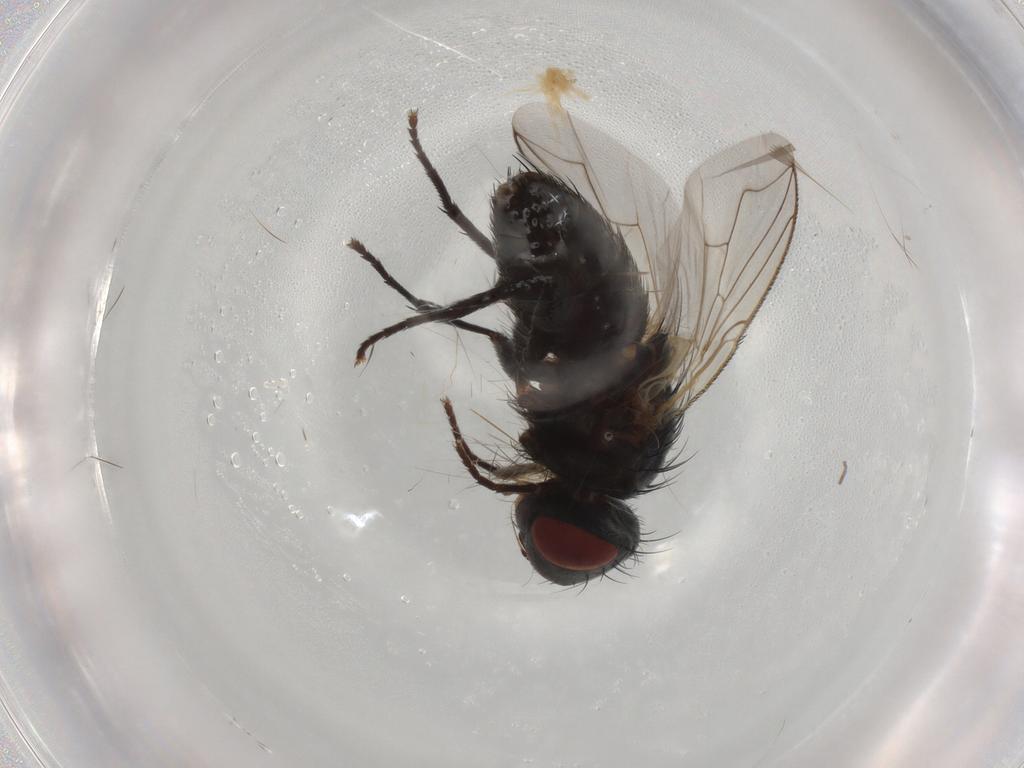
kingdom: Animalia
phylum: Arthropoda
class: Insecta
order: Diptera
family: Sarcophagidae
